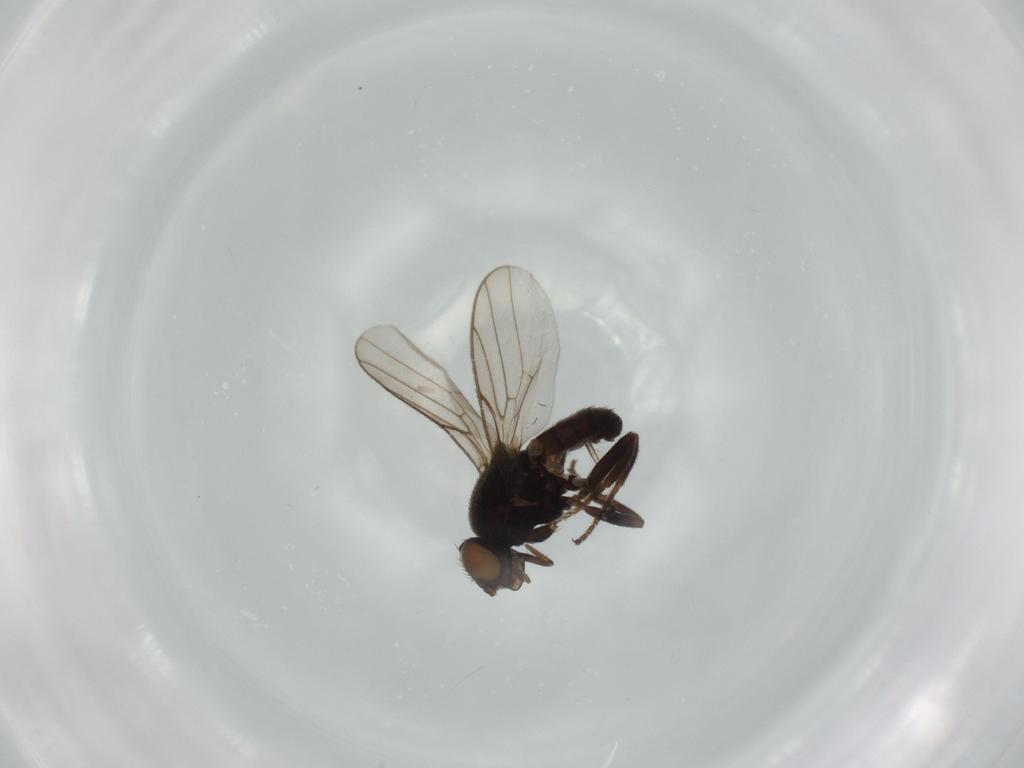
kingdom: Animalia
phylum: Arthropoda
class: Insecta
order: Diptera
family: Chloropidae
